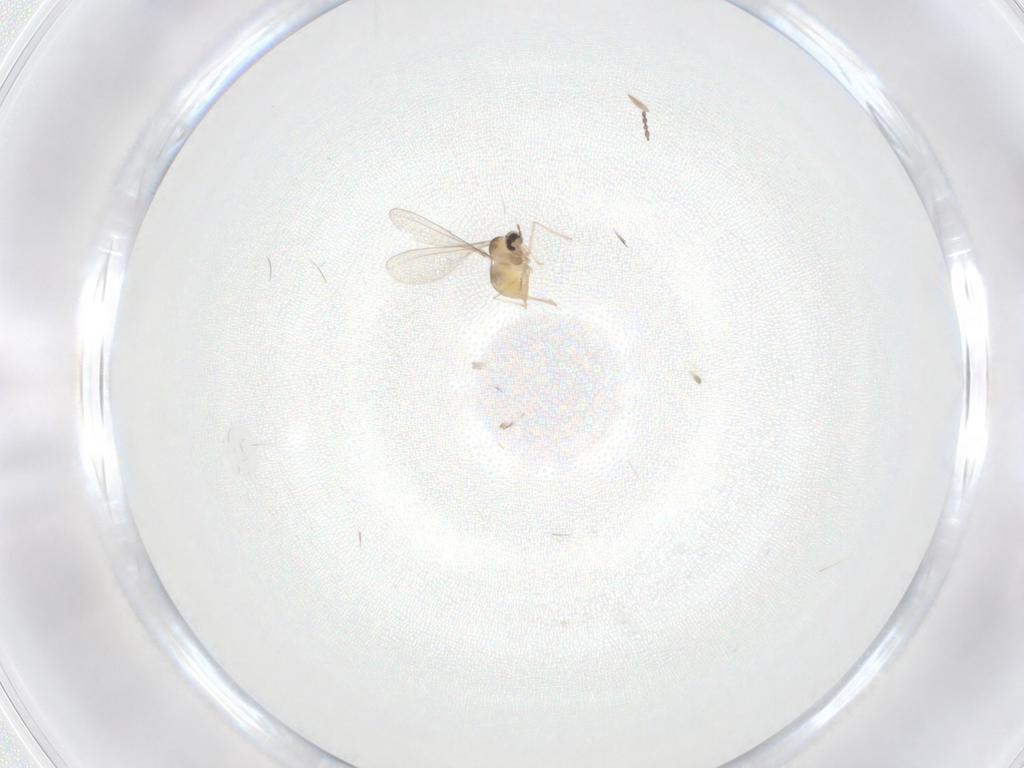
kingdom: Animalia
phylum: Arthropoda
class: Insecta
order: Diptera
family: Cecidomyiidae
